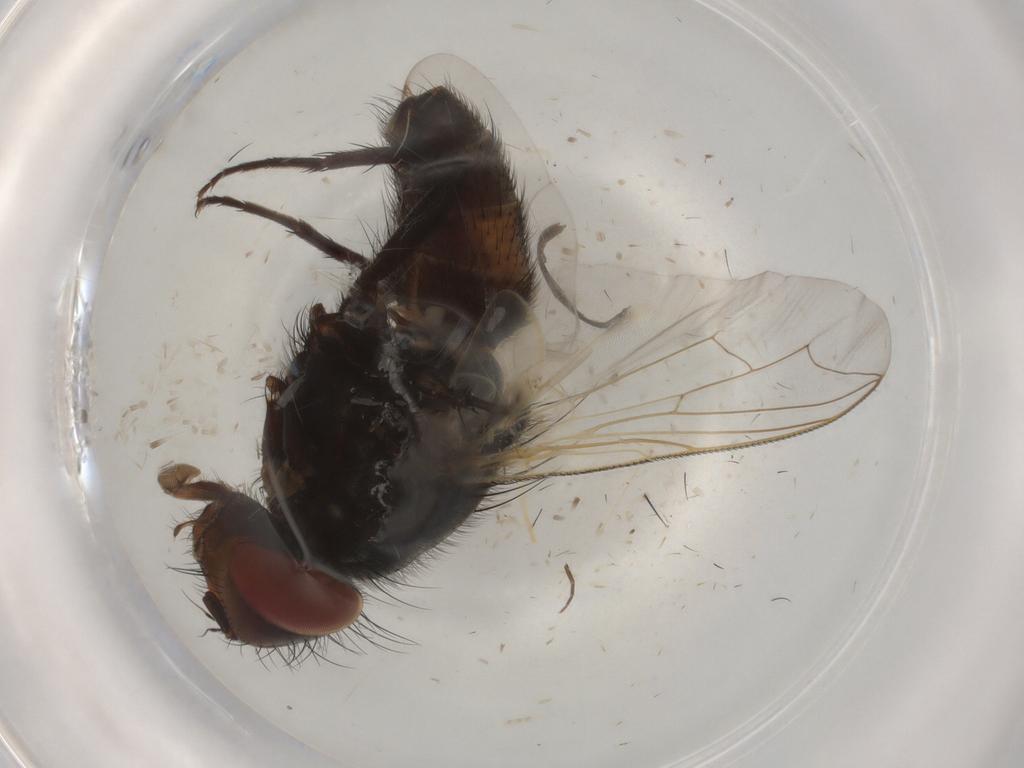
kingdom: Animalia
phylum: Arthropoda
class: Insecta
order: Diptera
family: Sarcophagidae
